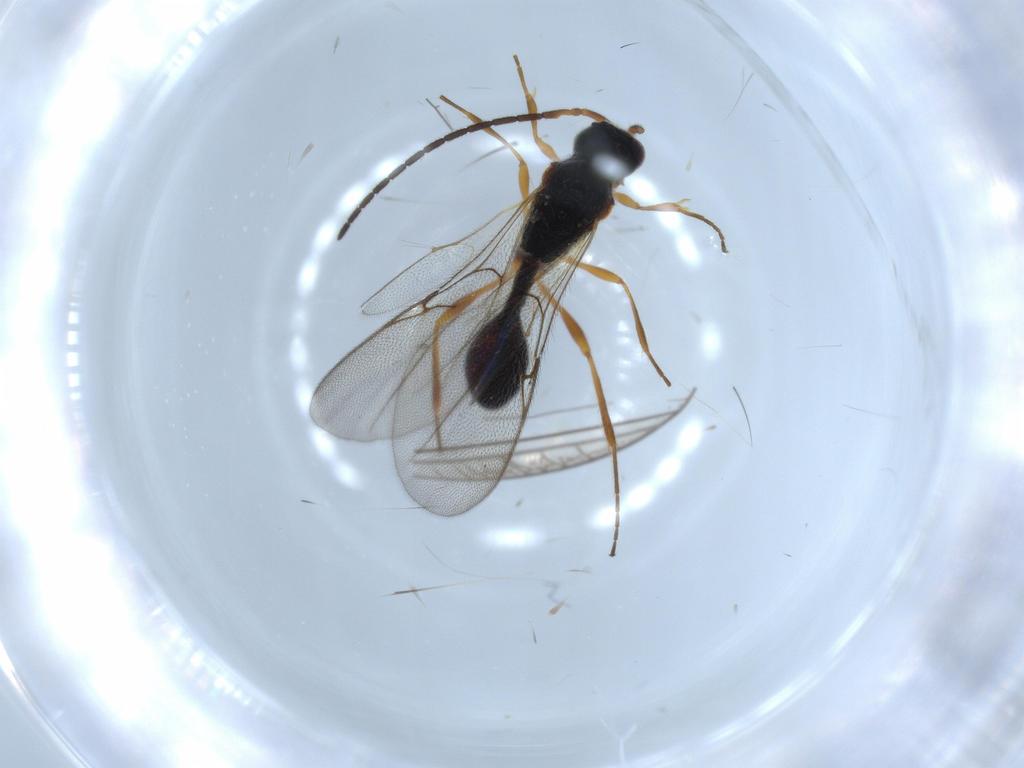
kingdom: Animalia
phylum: Arthropoda
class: Insecta
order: Hymenoptera
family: Diapriidae
